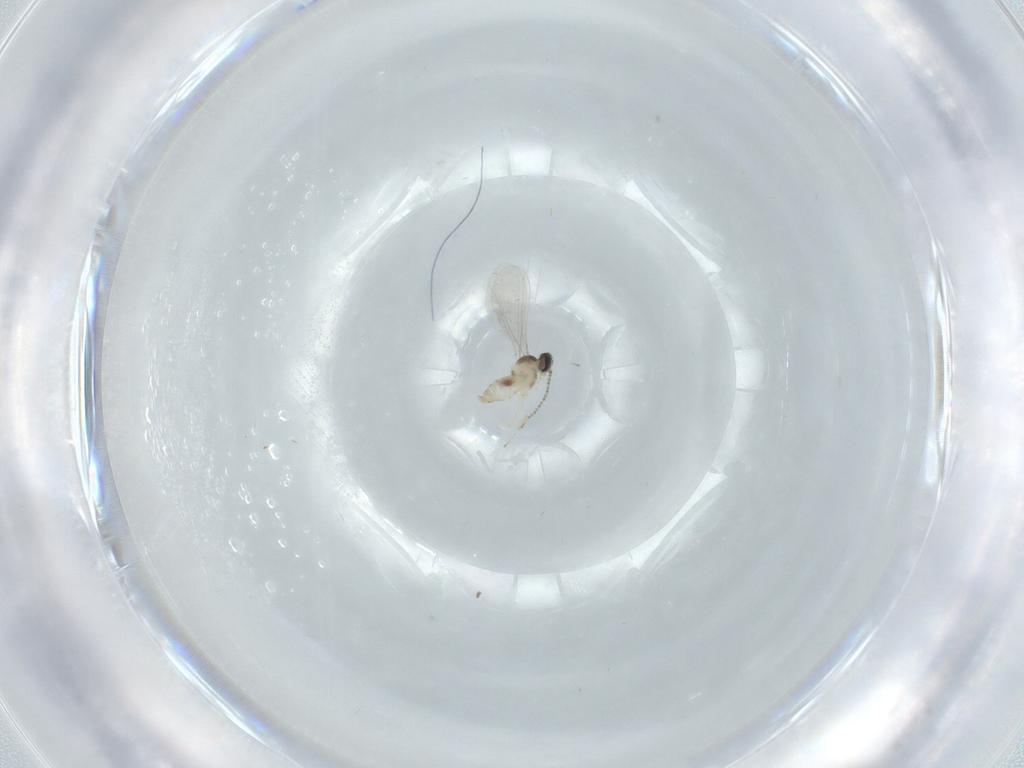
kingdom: Animalia
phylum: Arthropoda
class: Insecta
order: Diptera
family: Cecidomyiidae
